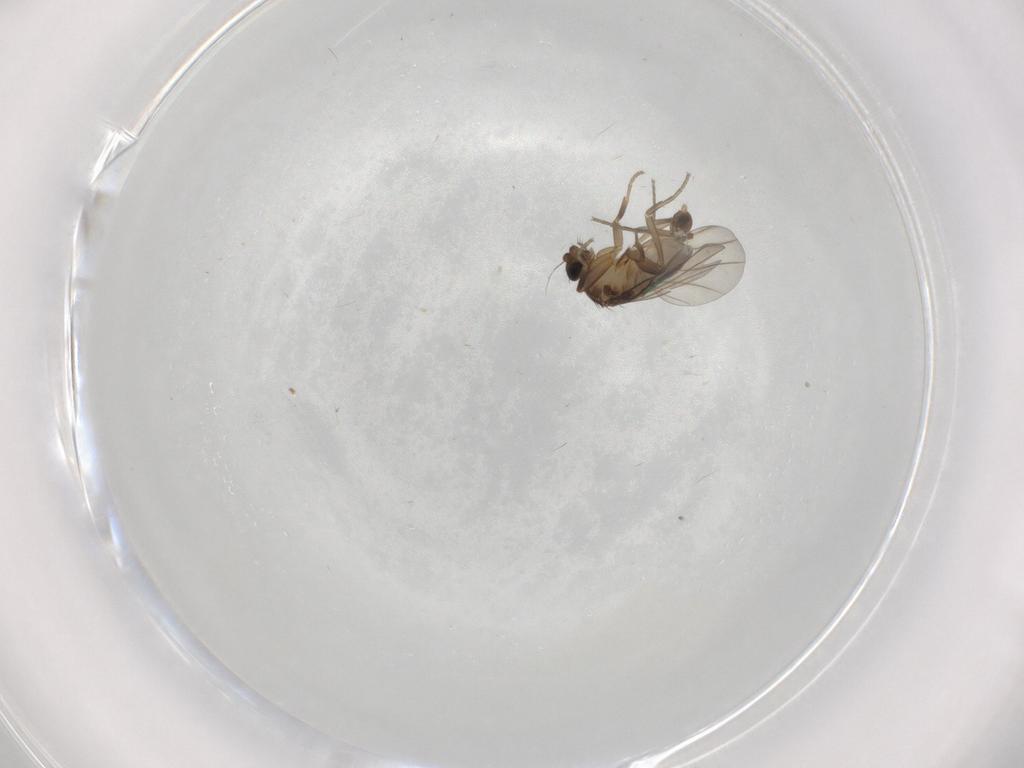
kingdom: Animalia
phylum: Arthropoda
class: Insecta
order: Diptera
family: Phoridae
